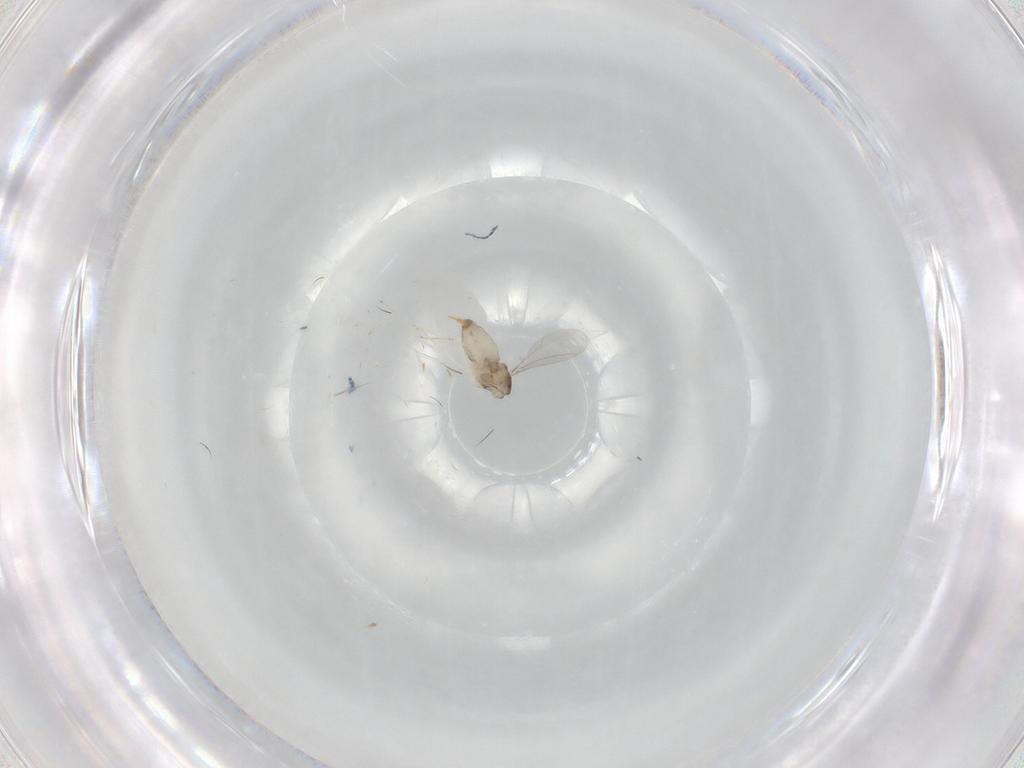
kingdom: Animalia
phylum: Arthropoda
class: Insecta
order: Diptera
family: Cecidomyiidae
